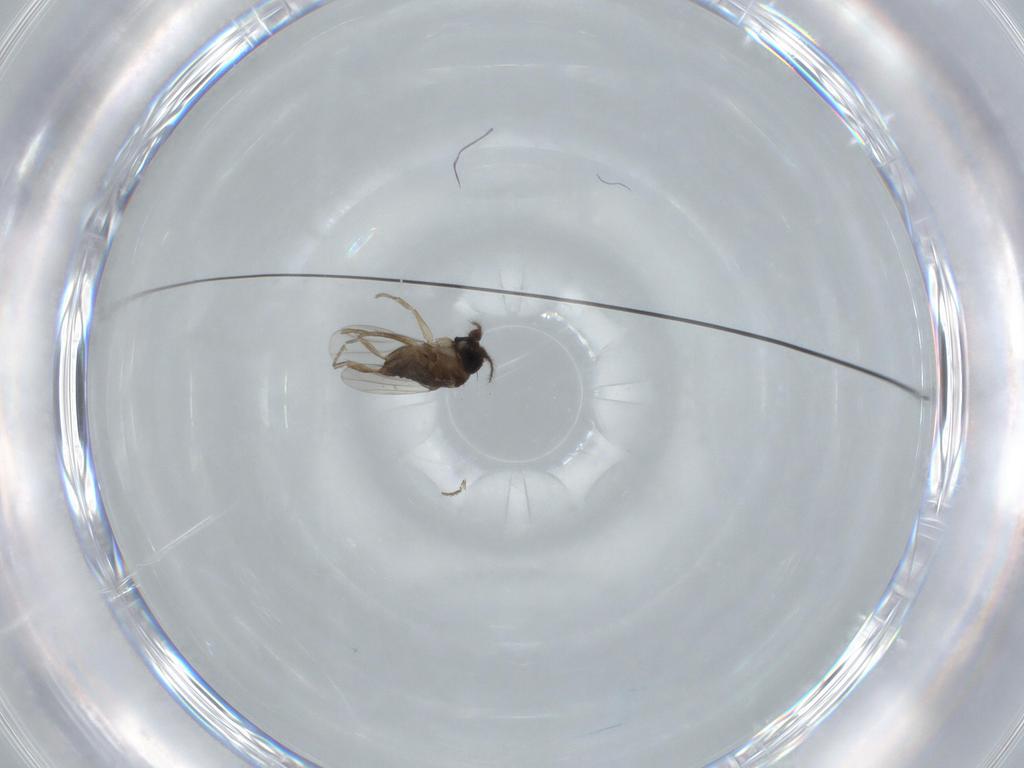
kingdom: Animalia
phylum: Arthropoda
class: Insecta
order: Diptera
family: Phoridae
